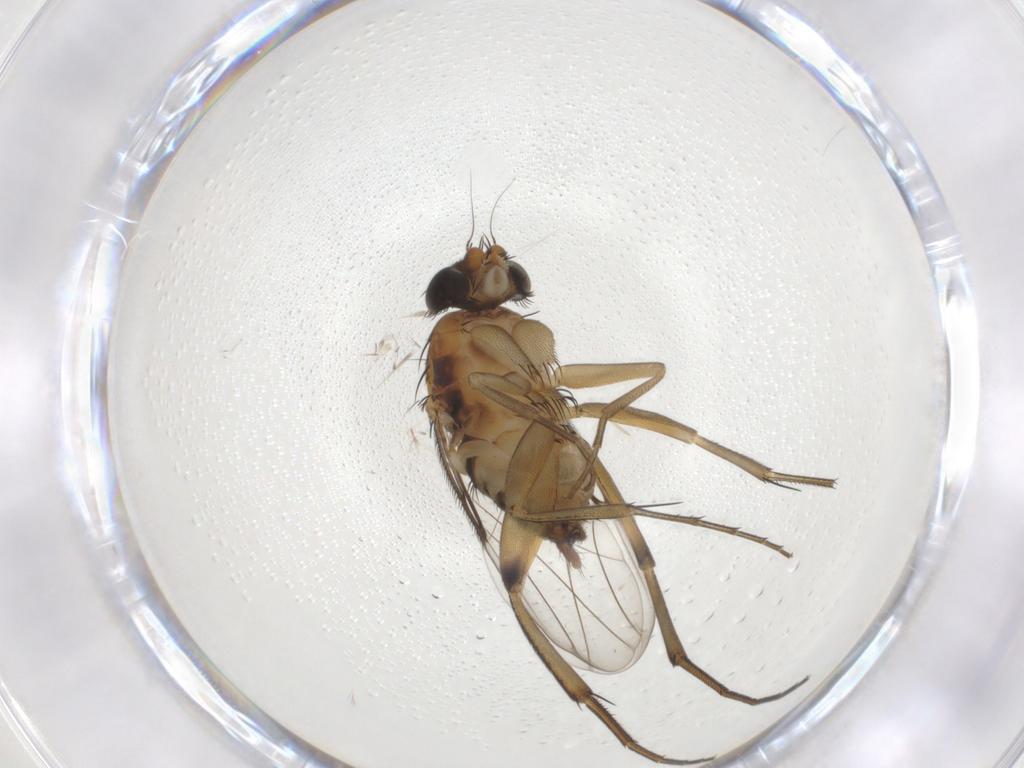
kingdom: Animalia
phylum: Arthropoda
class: Insecta
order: Diptera
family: Phoridae
